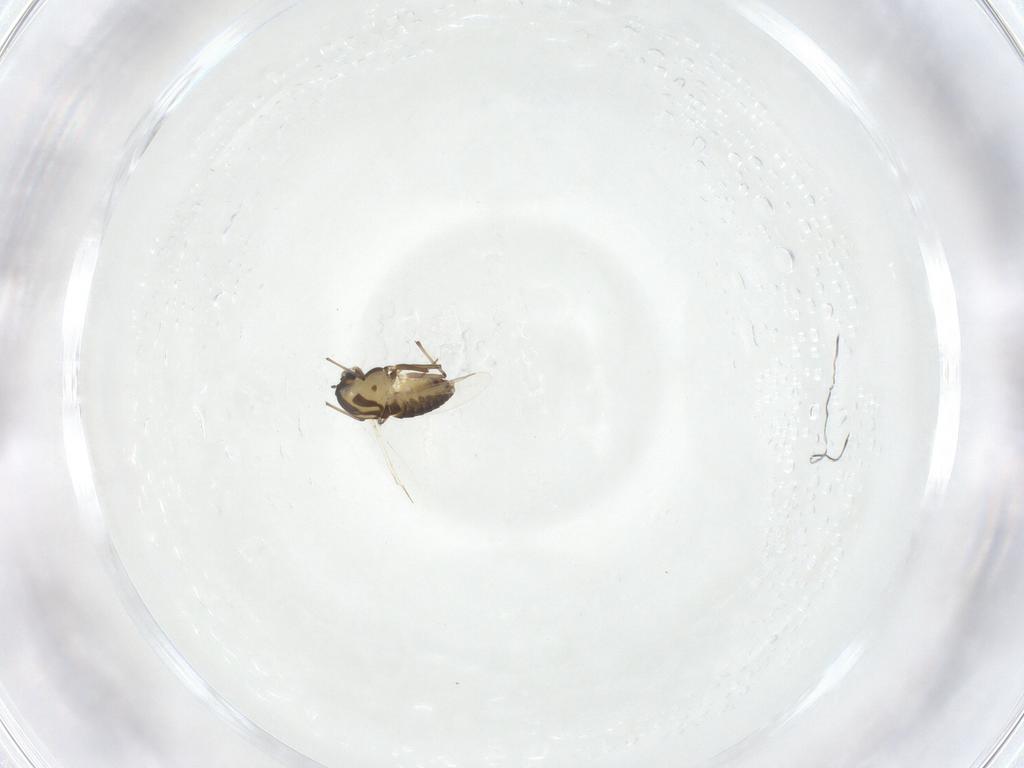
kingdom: Animalia
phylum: Arthropoda
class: Insecta
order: Diptera
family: Chironomidae
